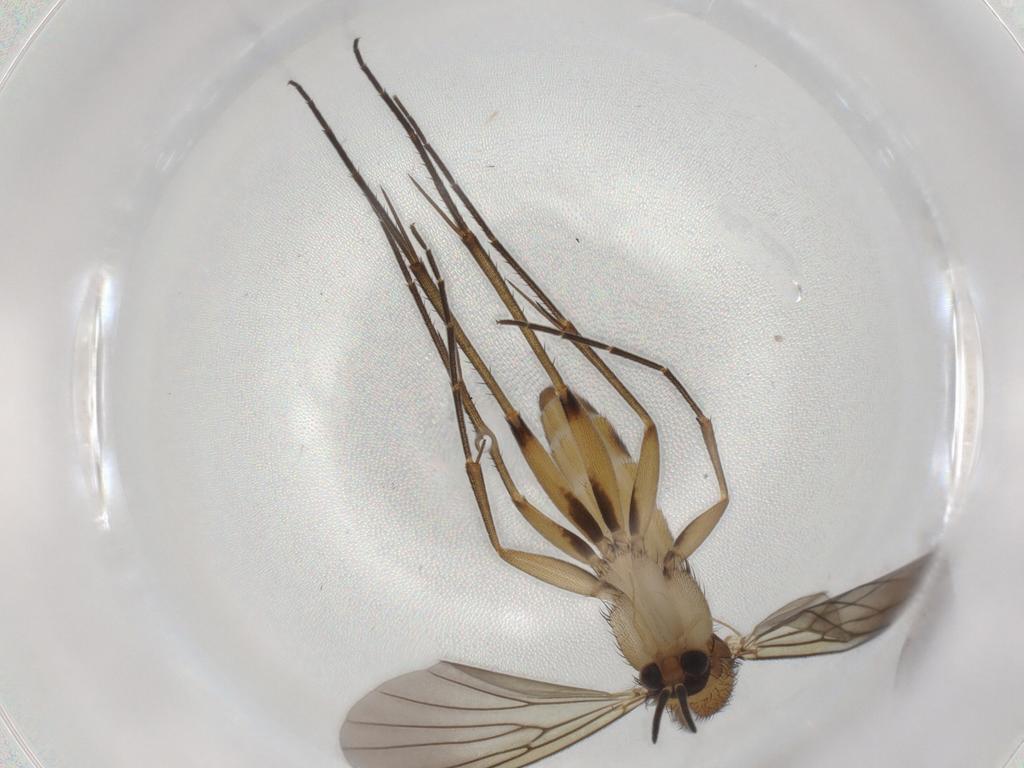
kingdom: Animalia
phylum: Arthropoda
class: Insecta
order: Diptera
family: Mycetophilidae
